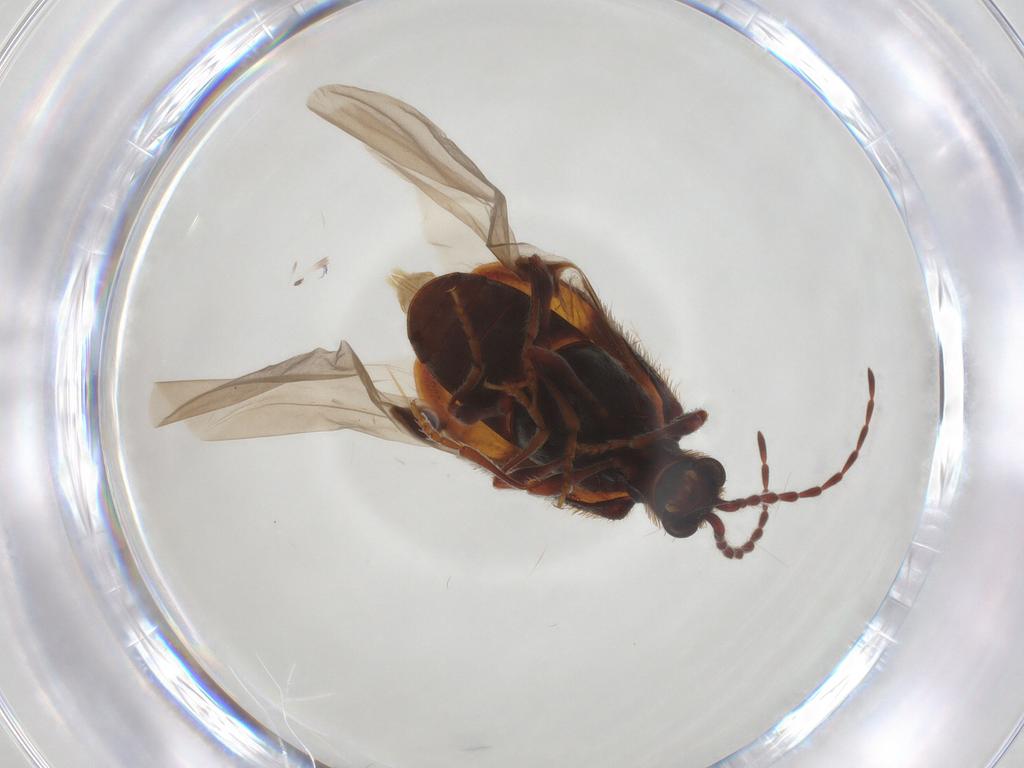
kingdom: Animalia
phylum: Arthropoda
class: Insecta
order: Coleoptera
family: Ptinidae
